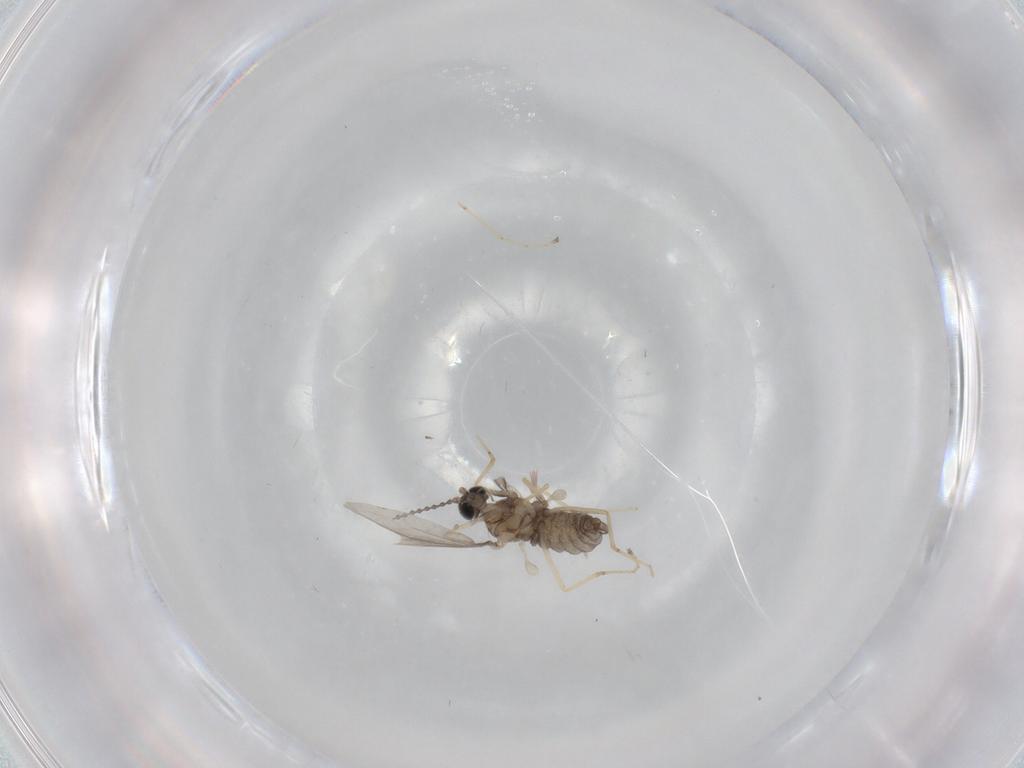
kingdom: Animalia
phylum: Arthropoda
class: Insecta
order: Diptera
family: Cecidomyiidae
